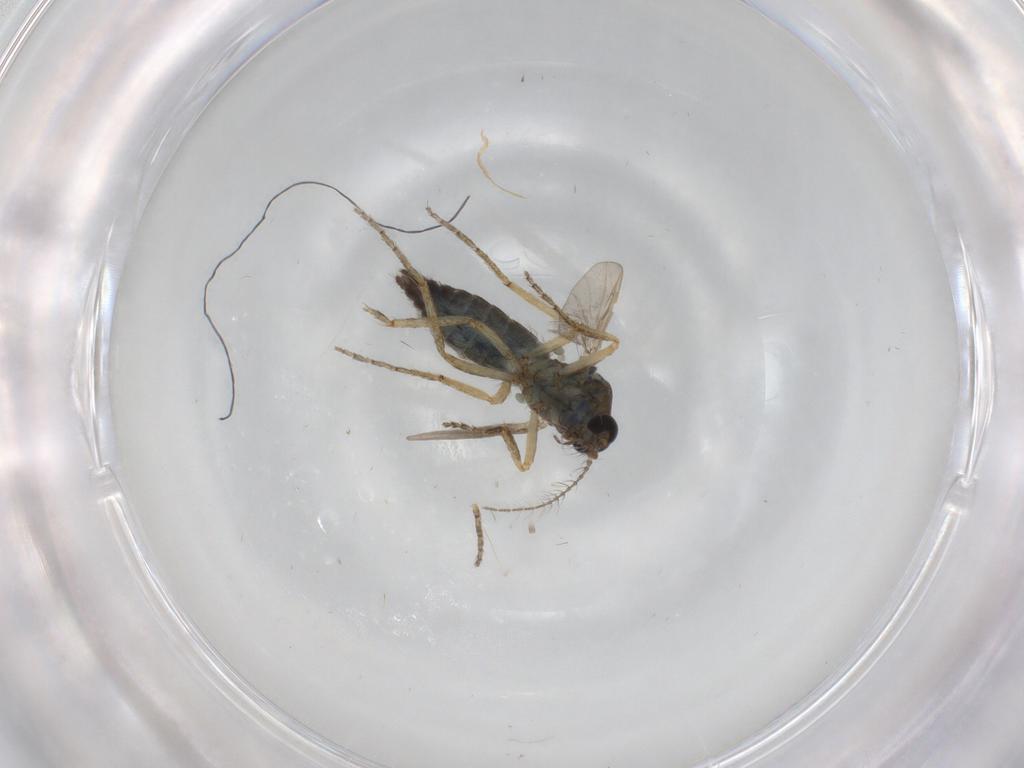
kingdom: Animalia
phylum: Arthropoda
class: Insecta
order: Diptera
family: Ceratopogonidae
